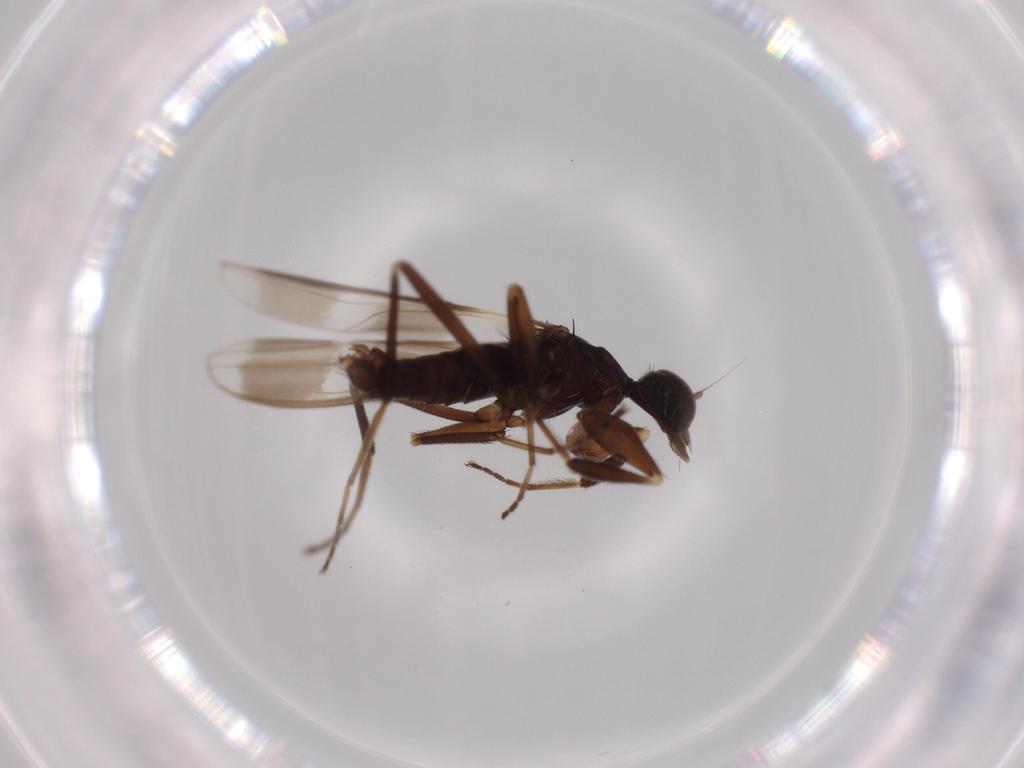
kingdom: Animalia
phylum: Arthropoda
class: Insecta
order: Diptera
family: Hybotidae
